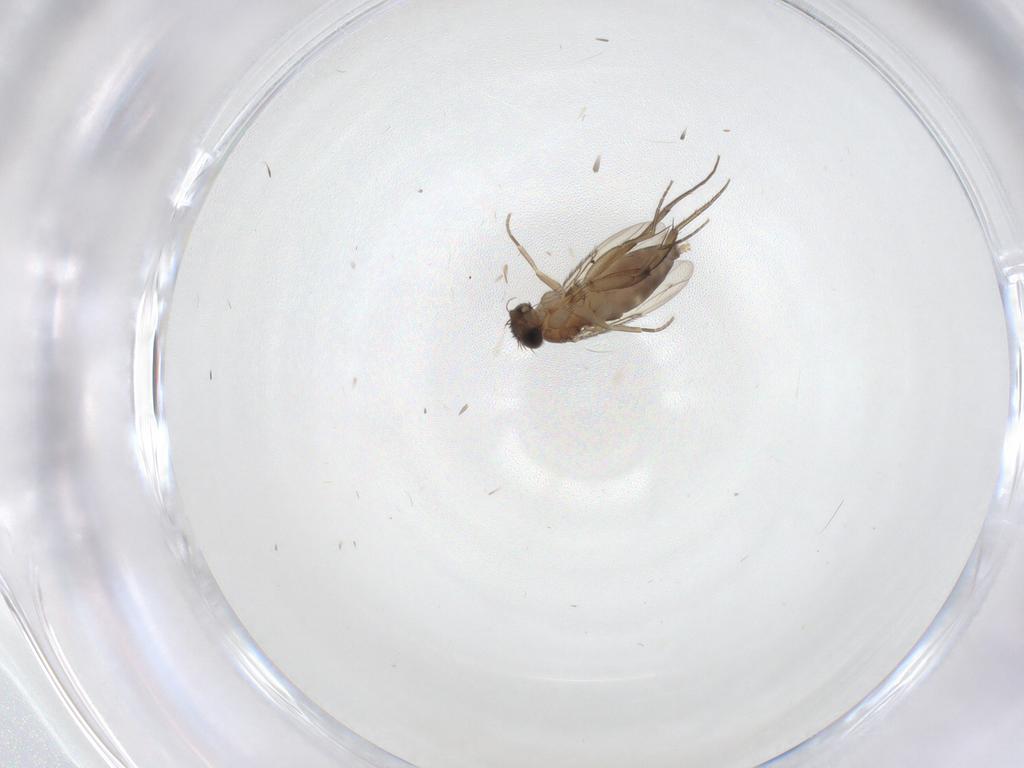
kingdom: Animalia
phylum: Arthropoda
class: Insecta
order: Diptera
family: Phoridae
